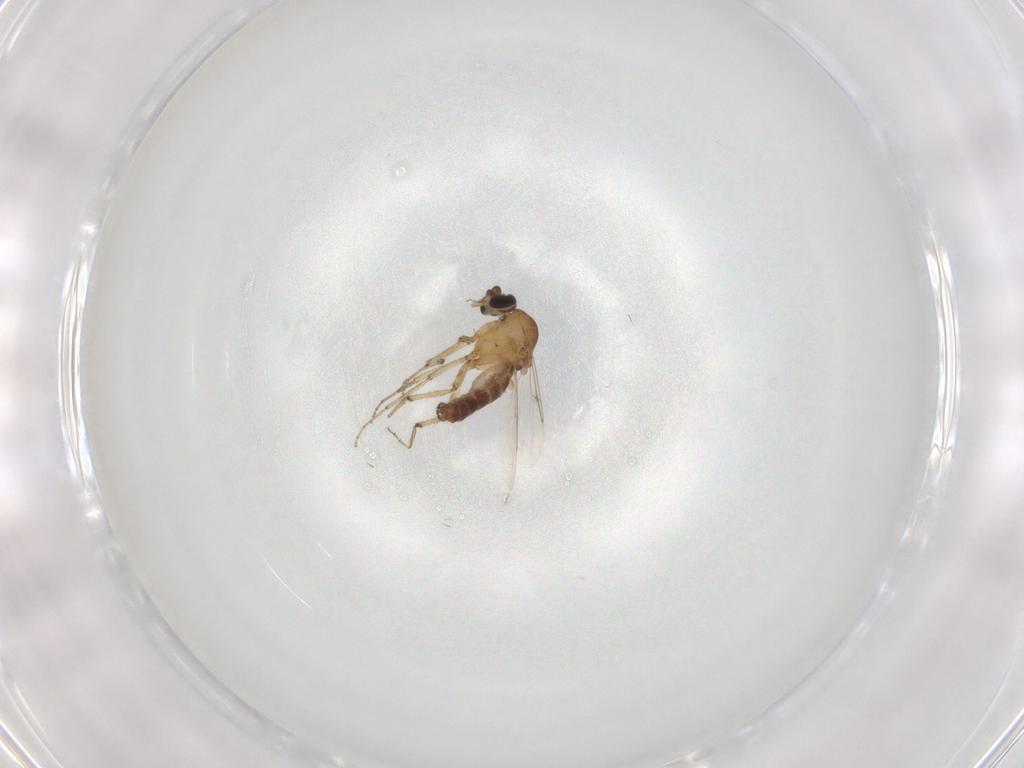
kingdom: Animalia
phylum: Arthropoda
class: Insecta
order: Diptera
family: Ceratopogonidae
